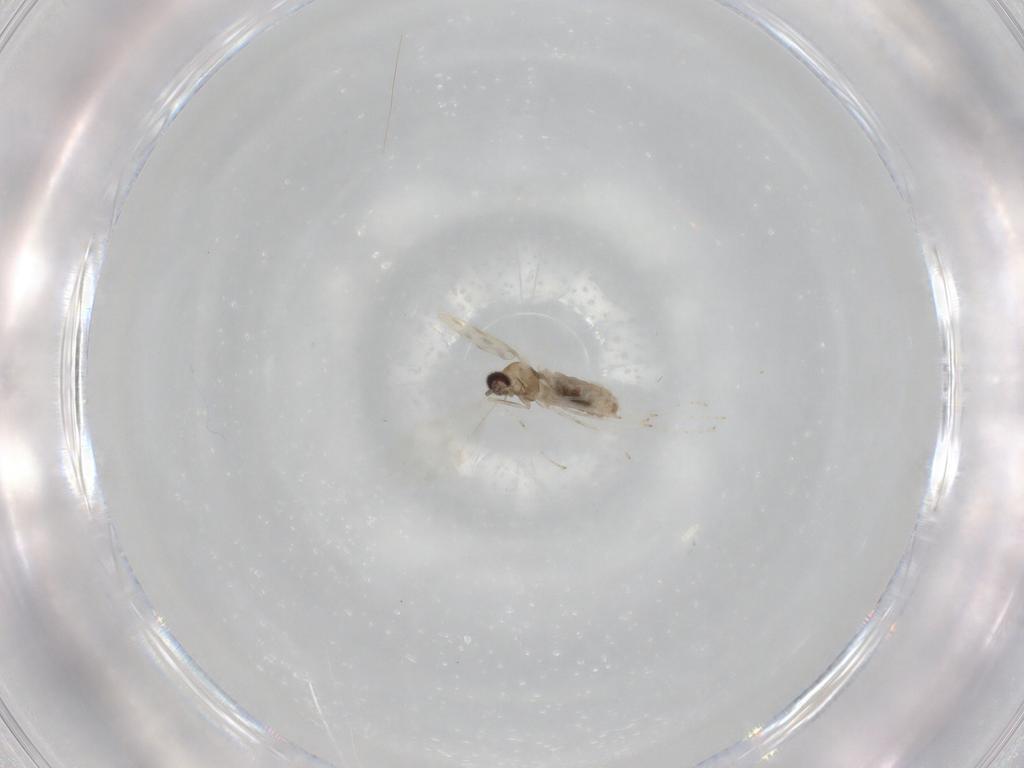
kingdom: Animalia
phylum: Arthropoda
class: Insecta
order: Diptera
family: Cecidomyiidae
